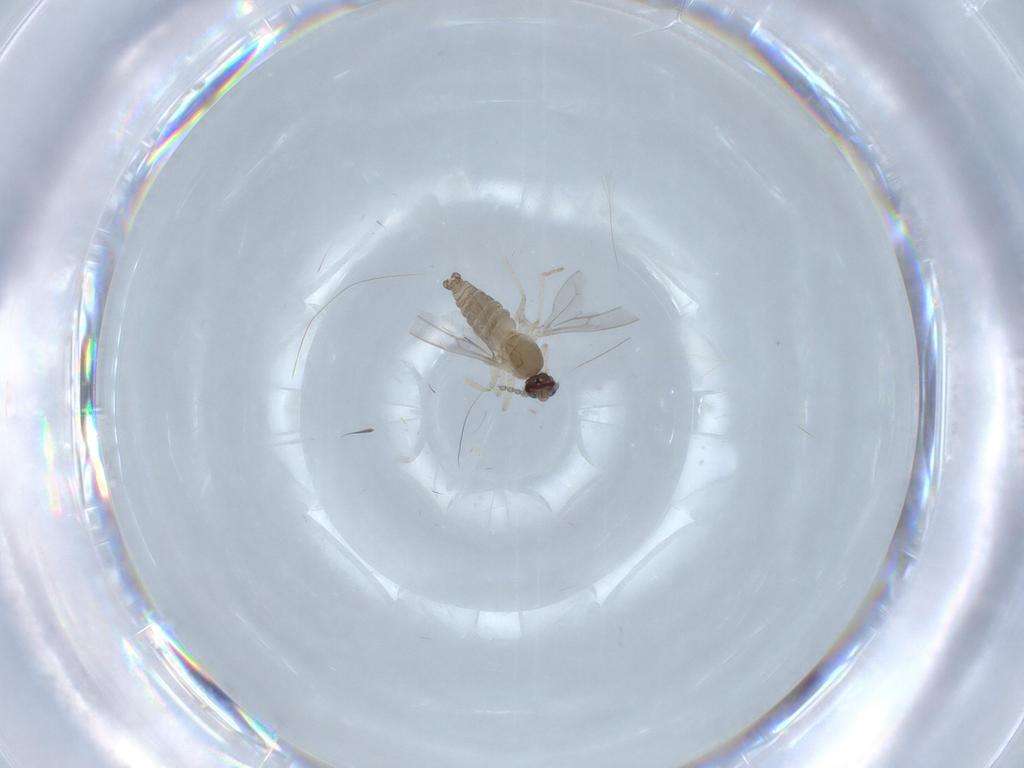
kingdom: Animalia
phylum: Arthropoda
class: Insecta
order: Diptera
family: Cecidomyiidae
